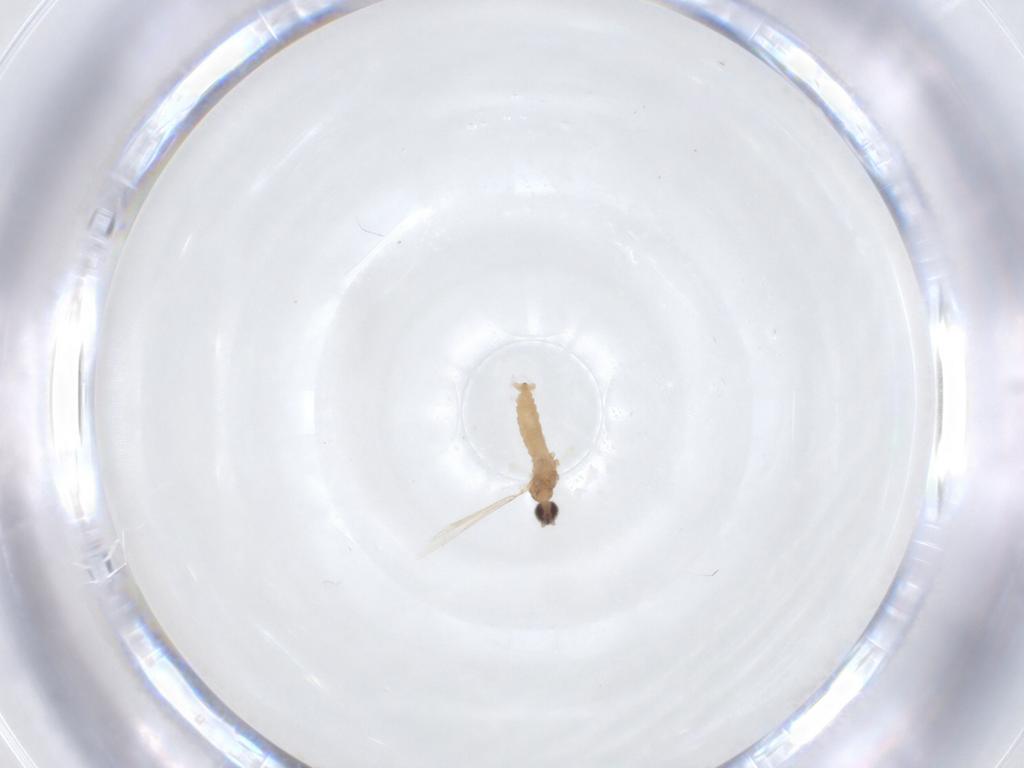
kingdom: Animalia
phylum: Arthropoda
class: Insecta
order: Diptera
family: Cecidomyiidae
